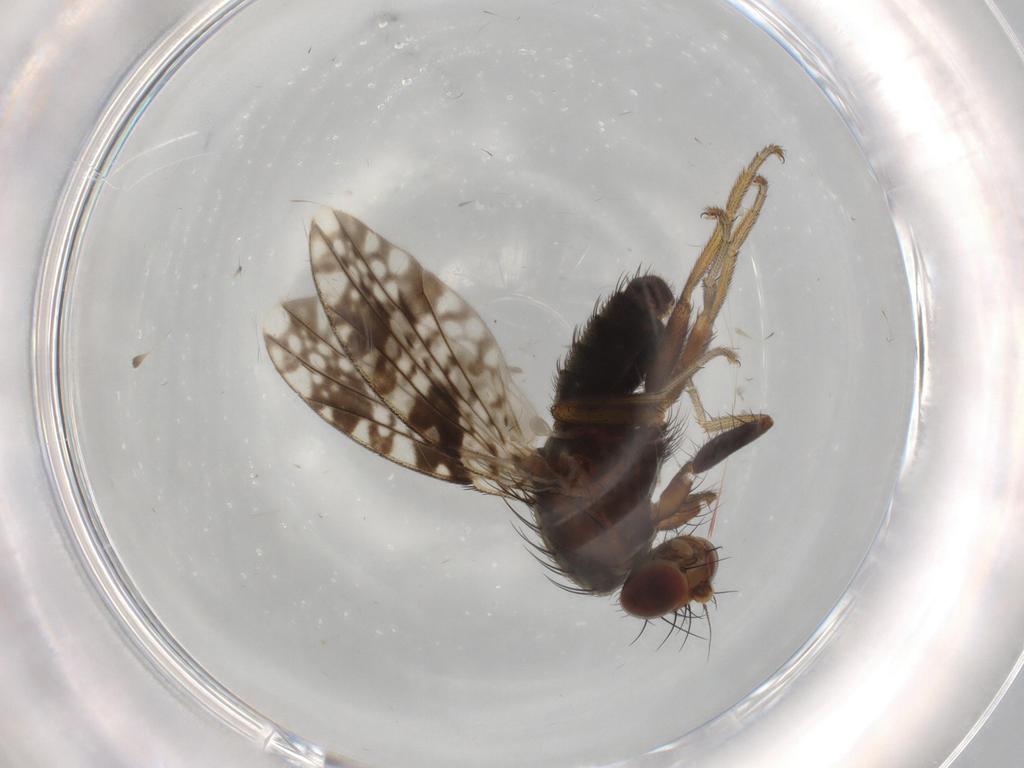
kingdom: Animalia
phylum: Arthropoda
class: Insecta
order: Diptera
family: Tephritidae
